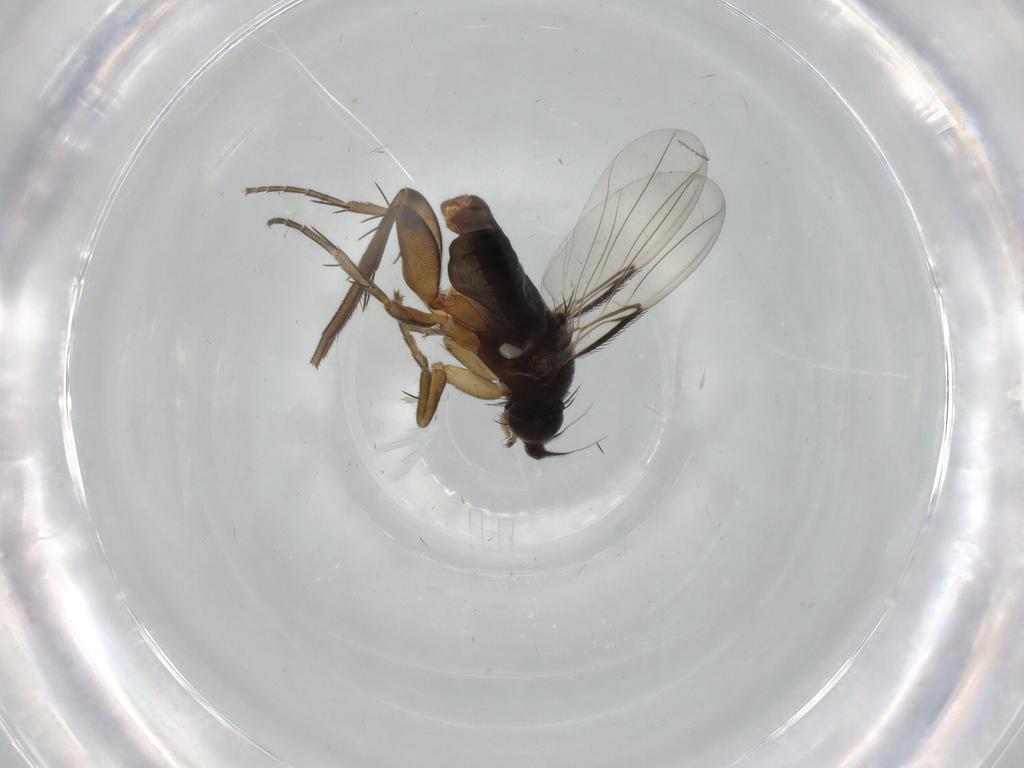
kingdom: Animalia
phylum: Arthropoda
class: Insecta
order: Diptera
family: Phoridae
